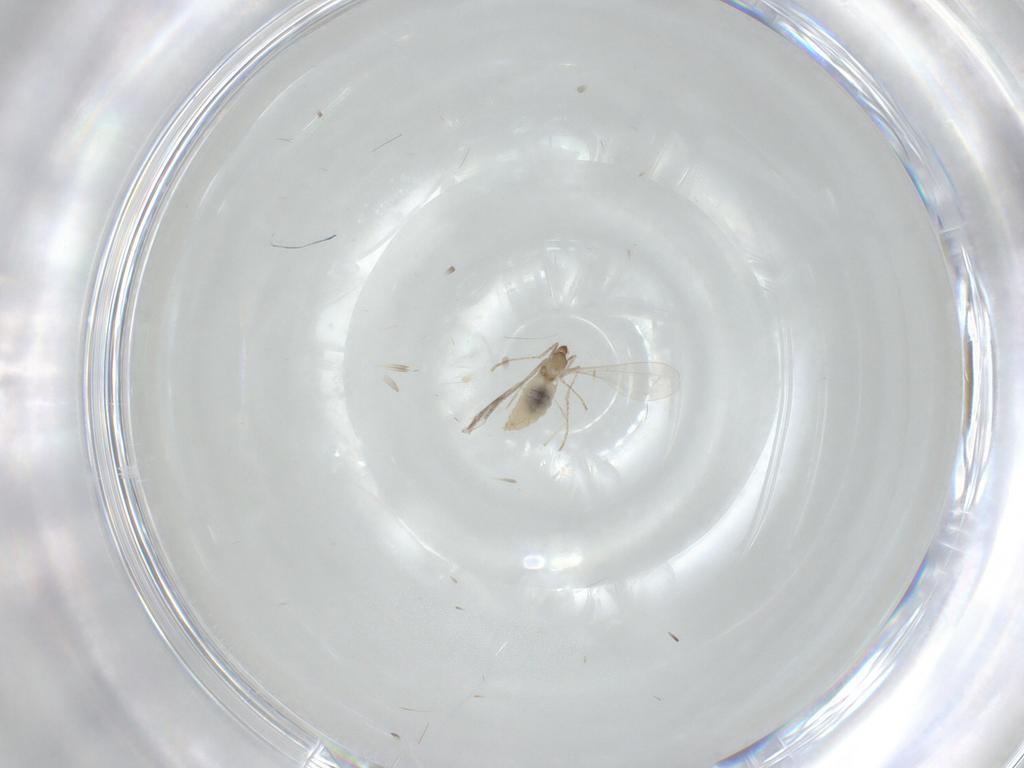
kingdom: Animalia
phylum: Arthropoda
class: Insecta
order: Diptera
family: Cecidomyiidae
